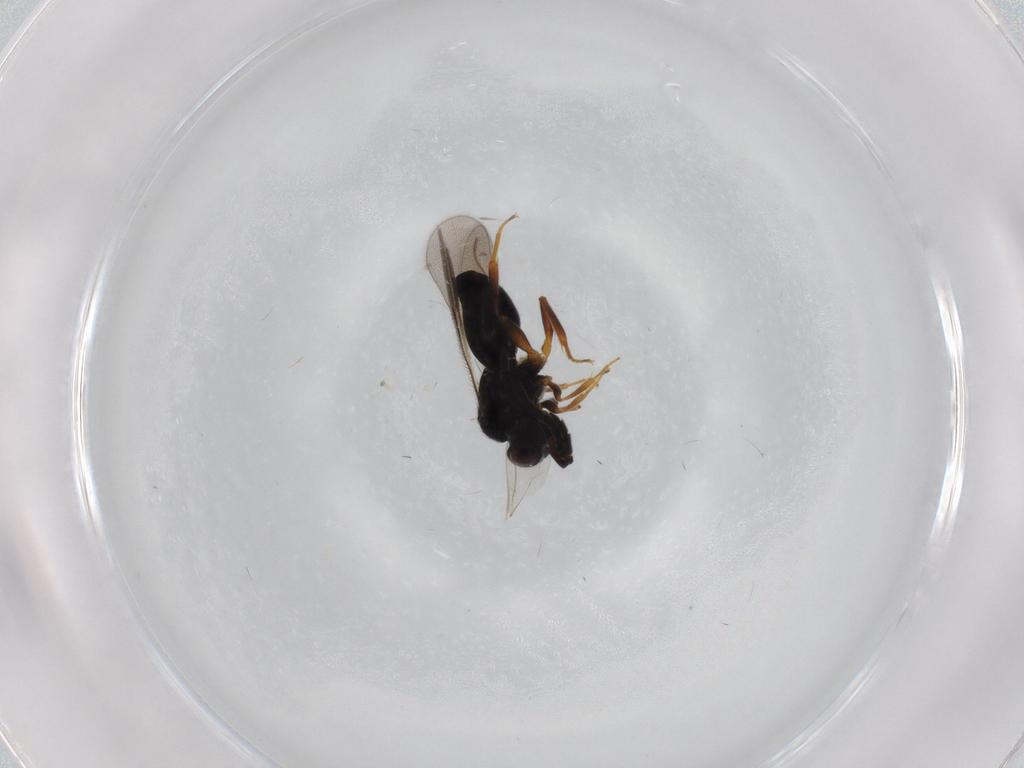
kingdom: Animalia
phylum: Arthropoda
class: Insecta
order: Hymenoptera
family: Ceraphronidae
